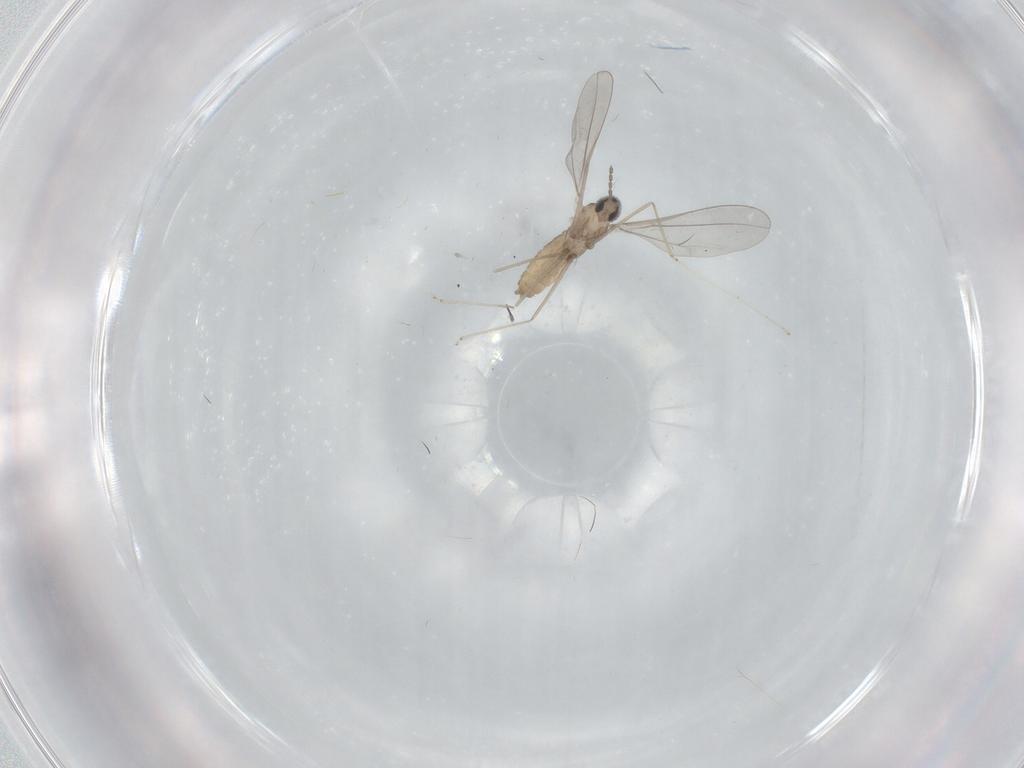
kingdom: Animalia
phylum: Arthropoda
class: Insecta
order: Diptera
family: Cecidomyiidae
